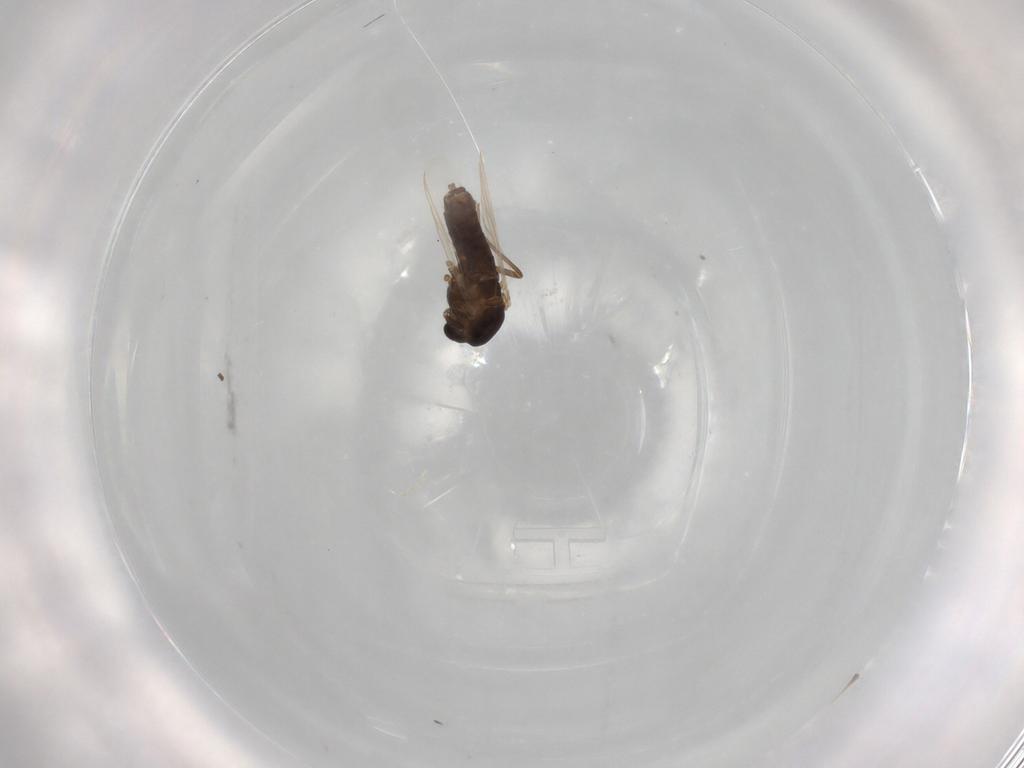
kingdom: Animalia
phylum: Arthropoda
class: Insecta
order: Diptera
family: Chironomidae
